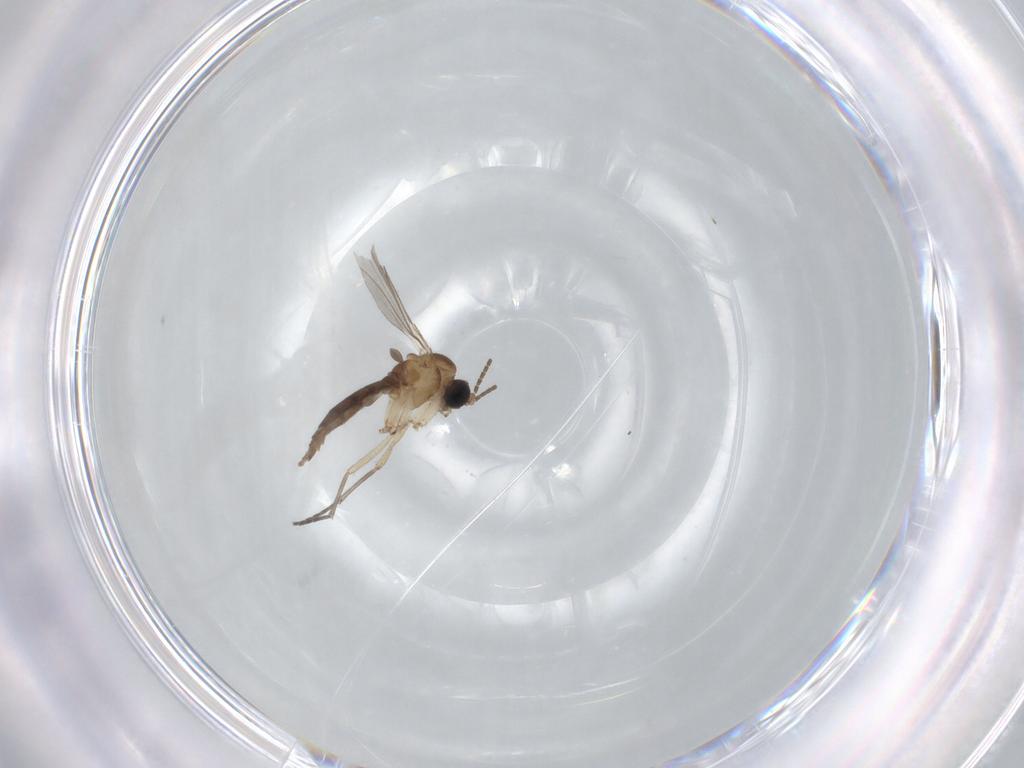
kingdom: Animalia
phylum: Arthropoda
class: Insecta
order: Diptera
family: Sciaridae
